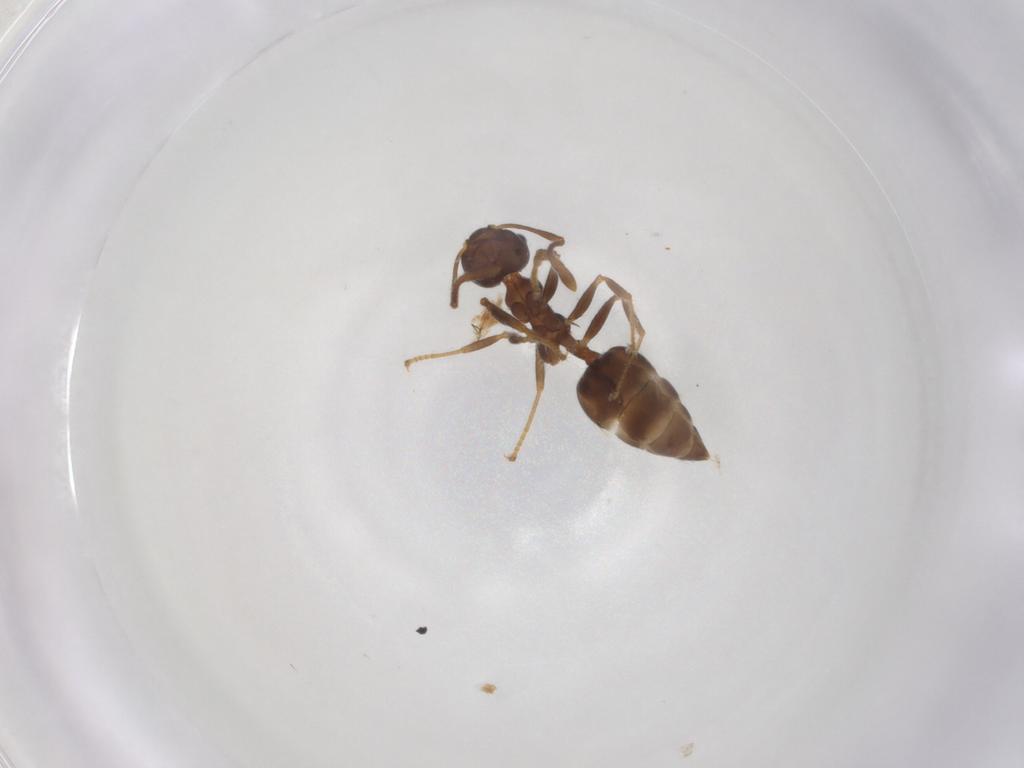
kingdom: Animalia
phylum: Arthropoda
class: Insecta
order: Hymenoptera
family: Formicidae
